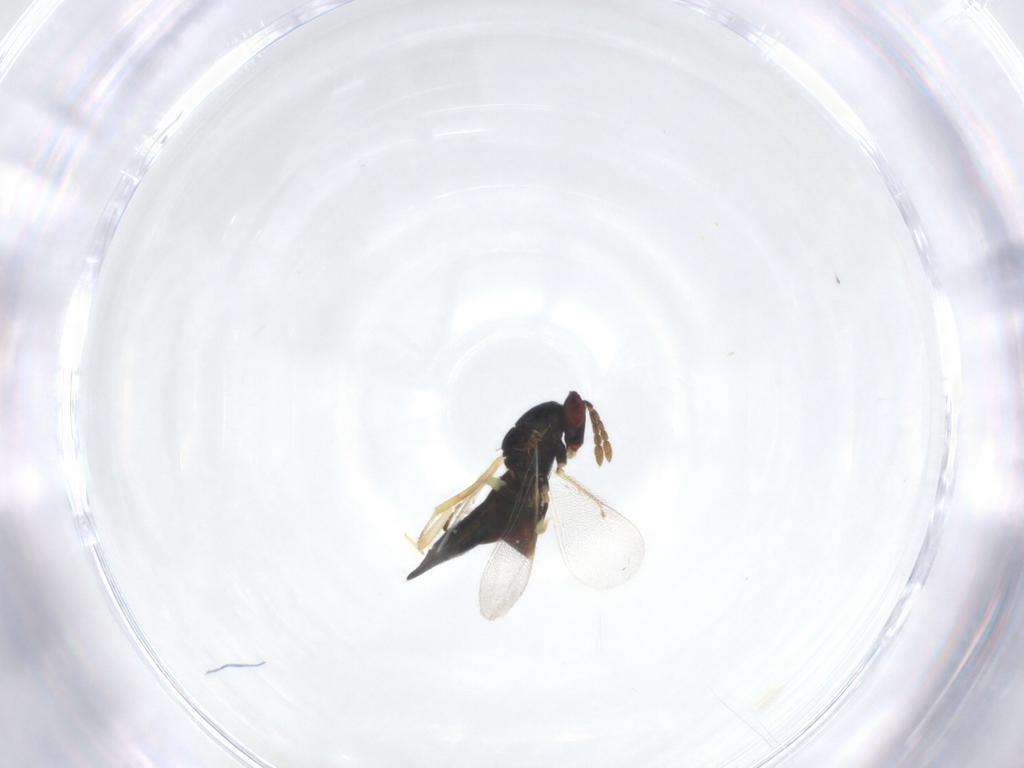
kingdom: Animalia
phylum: Arthropoda
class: Insecta
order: Hymenoptera
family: Eulophidae
